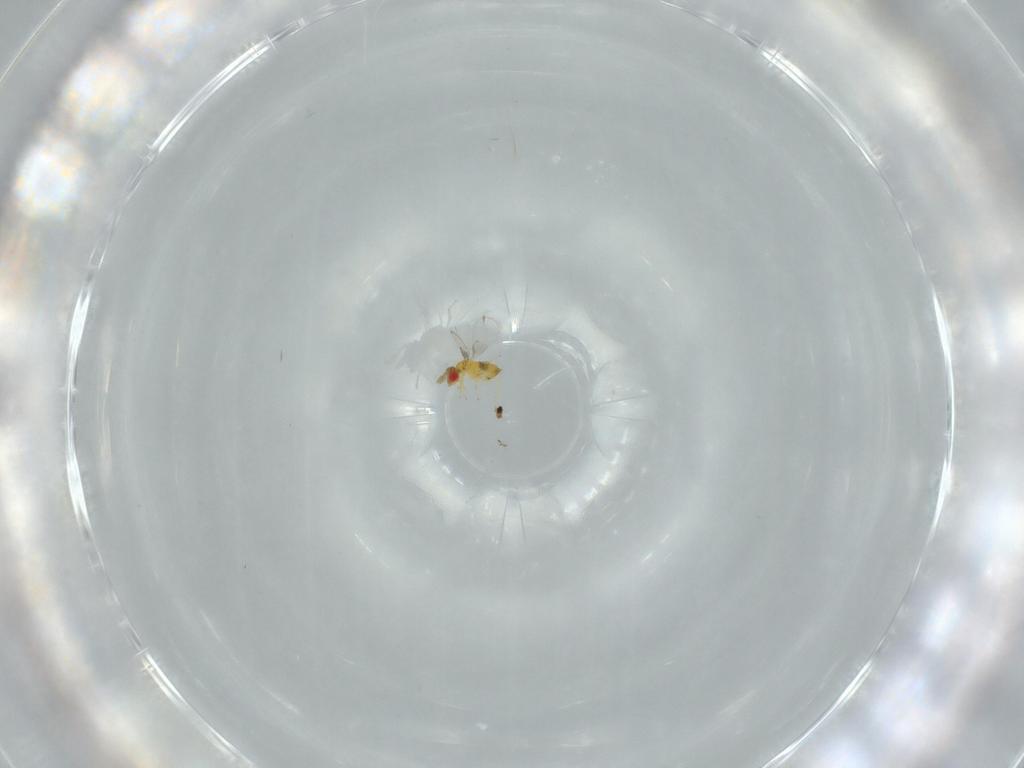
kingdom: Animalia
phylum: Arthropoda
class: Insecta
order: Hymenoptera
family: Trichogrammatidae
